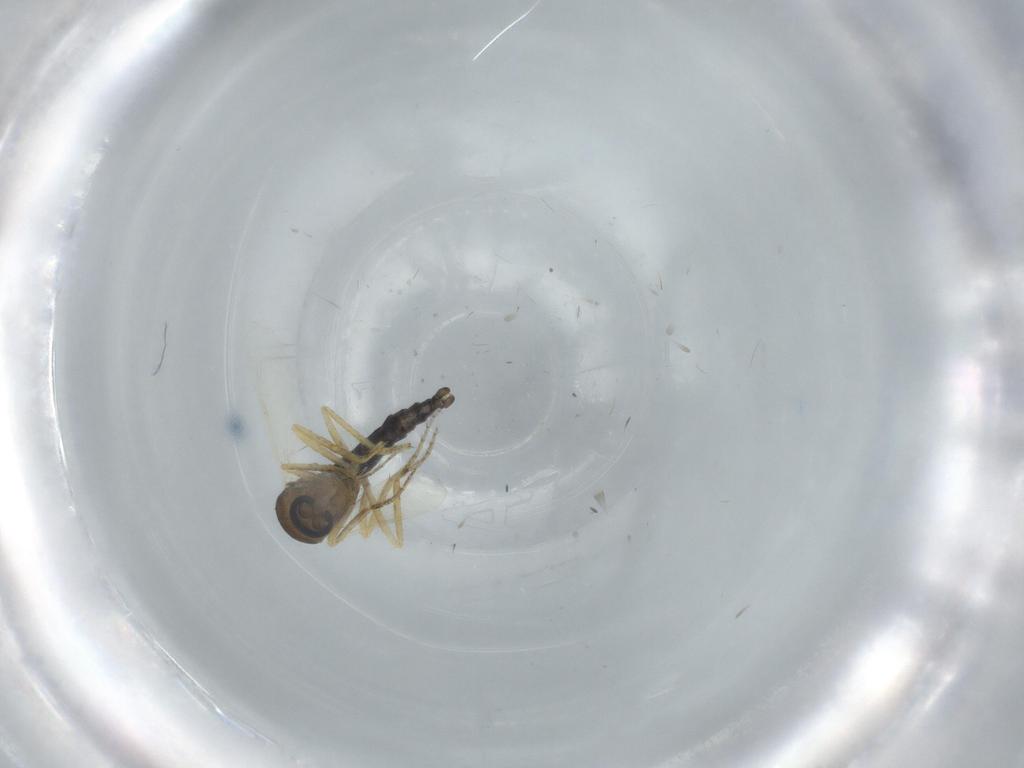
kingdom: Animalia
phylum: Arthropoda
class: Insecta
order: Diptera
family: Ceratopogonidae
